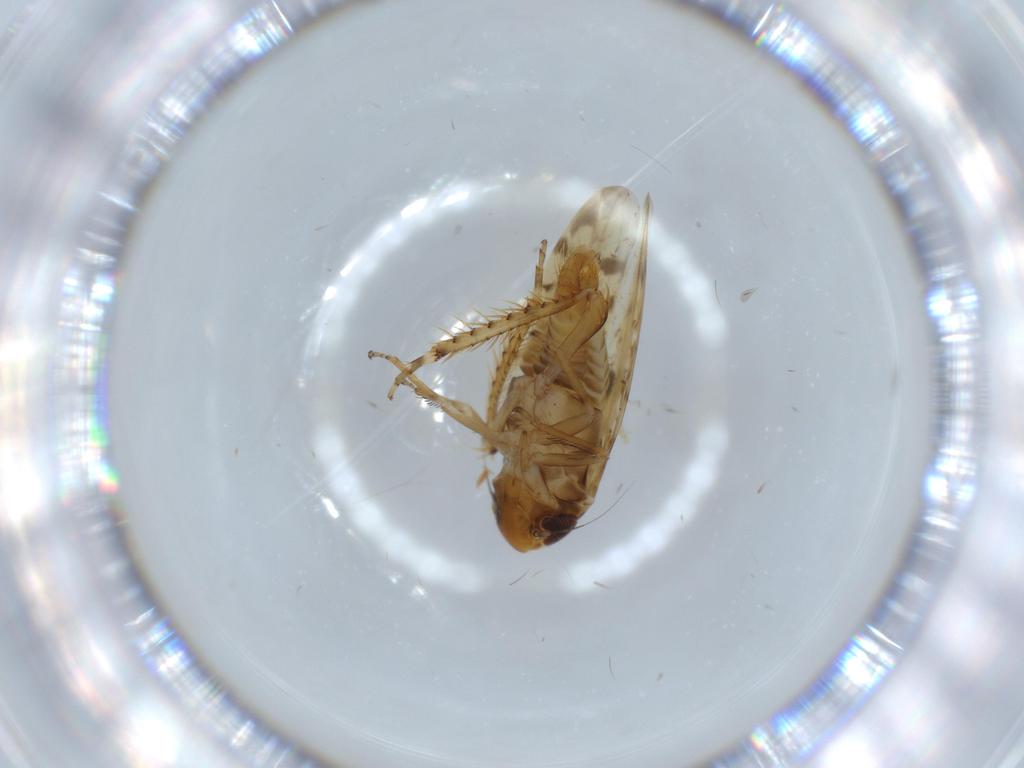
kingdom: Animalia
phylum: Arthropoda
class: Insecta
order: Hemiptera
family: Cicadellidae
